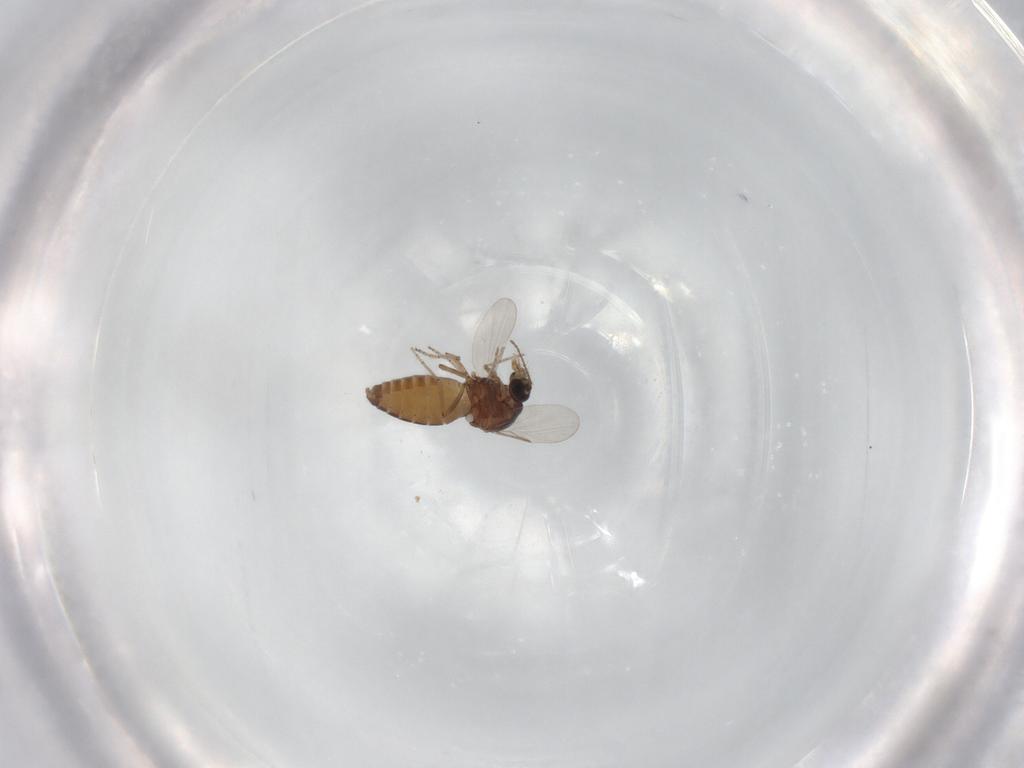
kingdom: Animalia
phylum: Arthropoda
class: Insecta
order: Diptera
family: Ceratopogonidae
